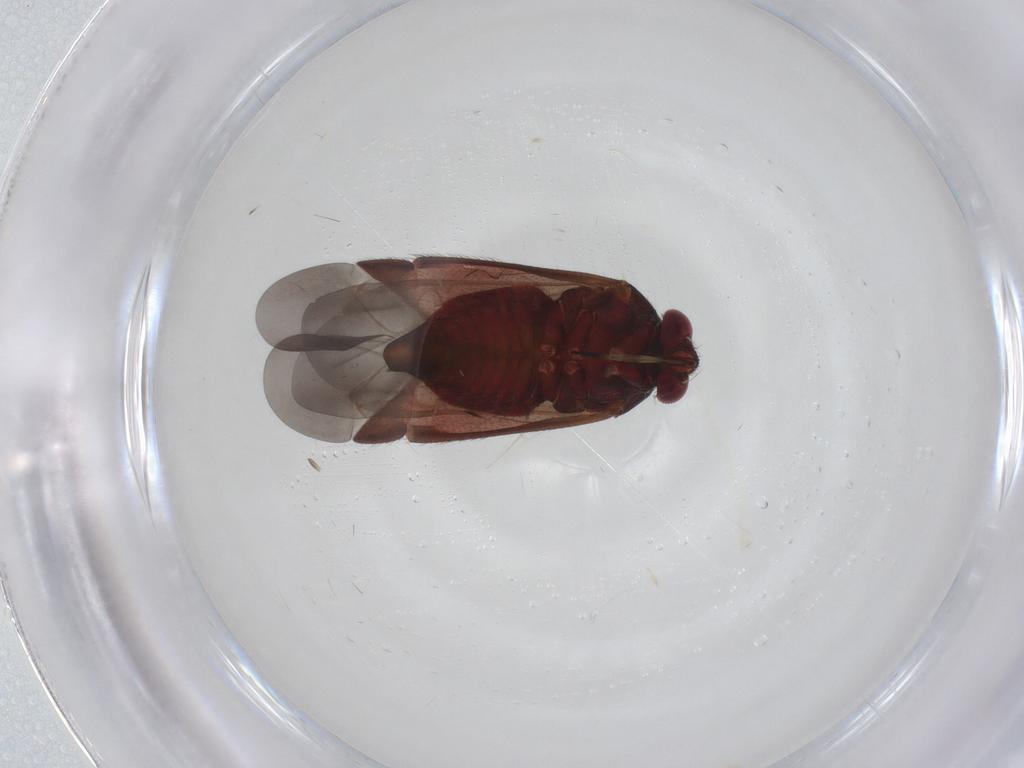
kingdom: Animalia
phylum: Arthropoda
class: Insecta
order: Hemiptera
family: Miridae
